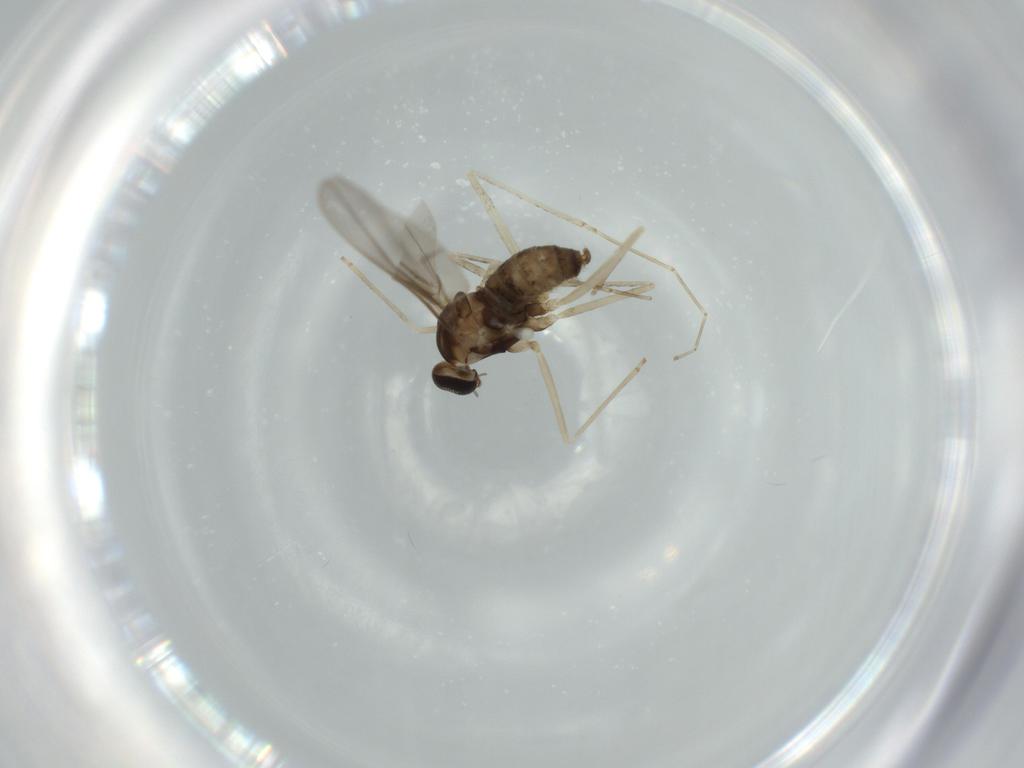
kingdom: Animalia
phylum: Arthropoda
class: Insecta
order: Diptera
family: Cecidomyiidae
